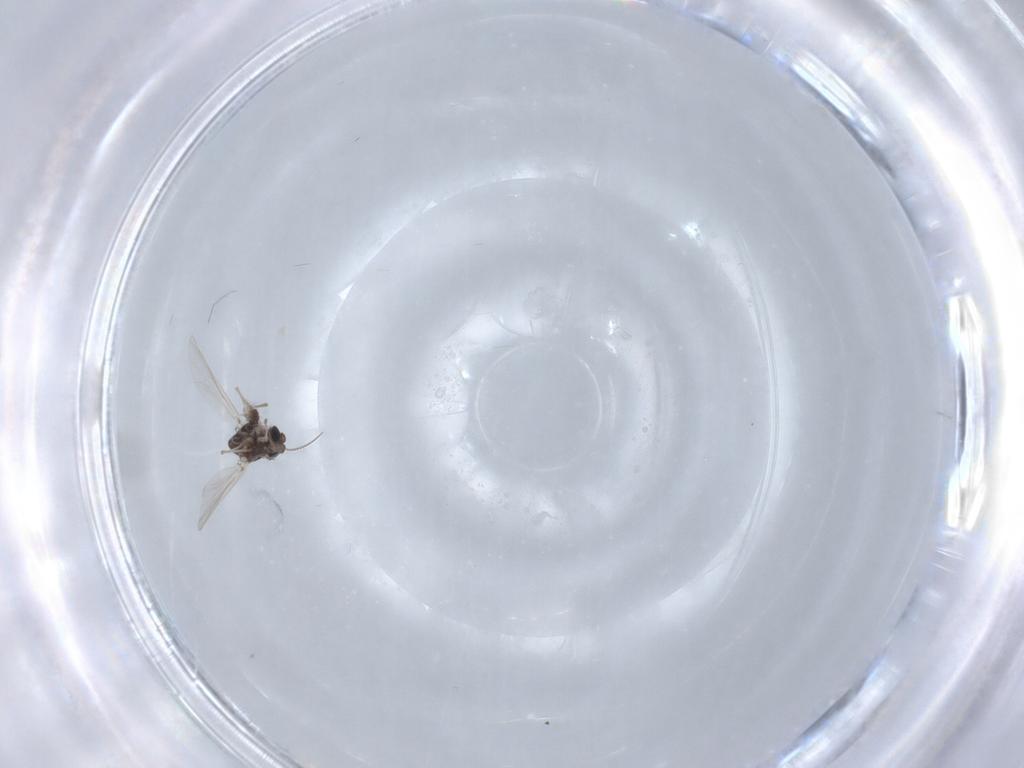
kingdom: Animalia
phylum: Arthropoda
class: Insecta
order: Diptera
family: Chironomidae
